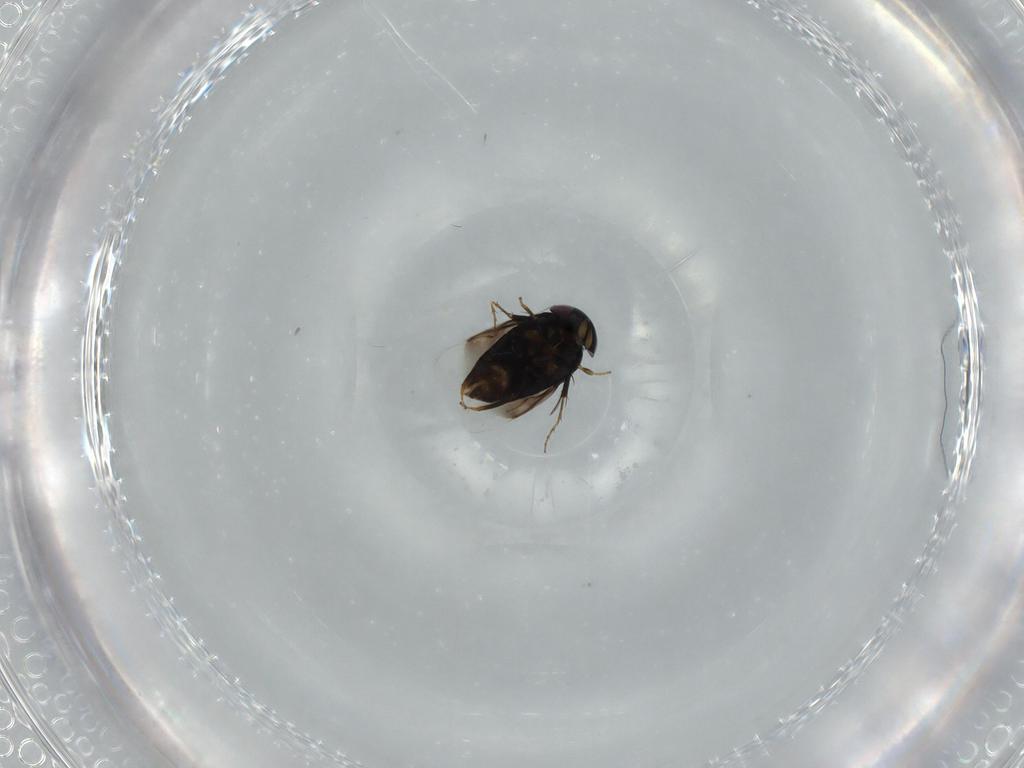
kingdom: Animalia
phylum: Arthropoda
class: Insecta
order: Hymenoptera
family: Signiphoridae
